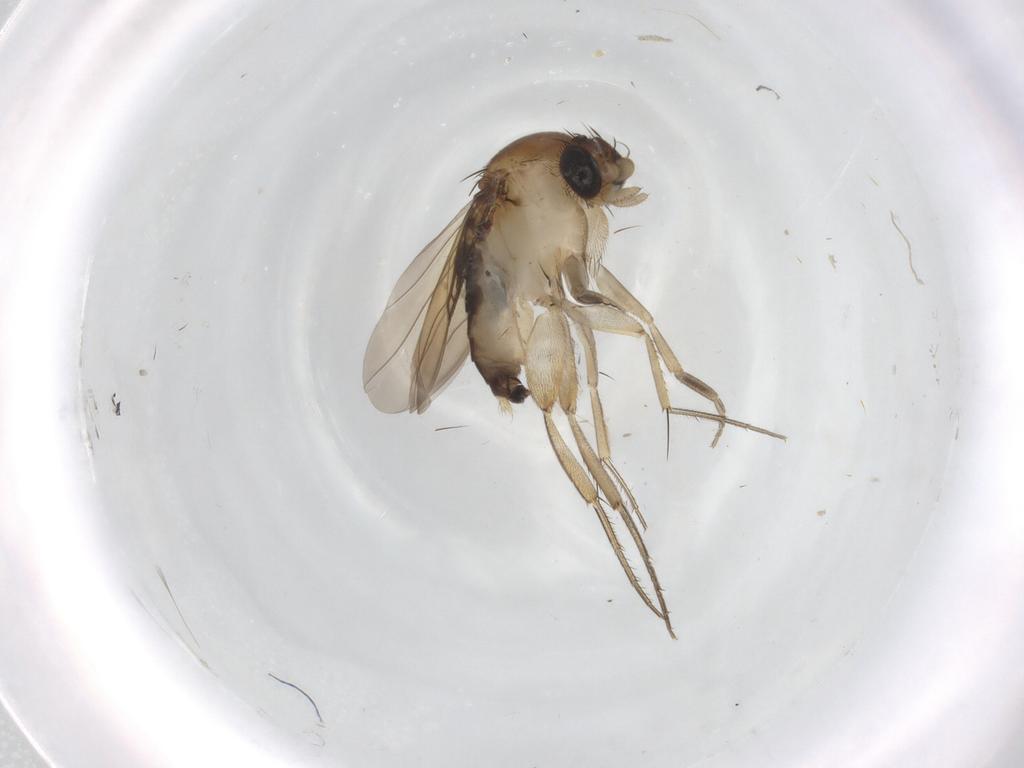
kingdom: Animalia
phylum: Arthropoda
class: Insecta
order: Diptera
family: Phoridae
